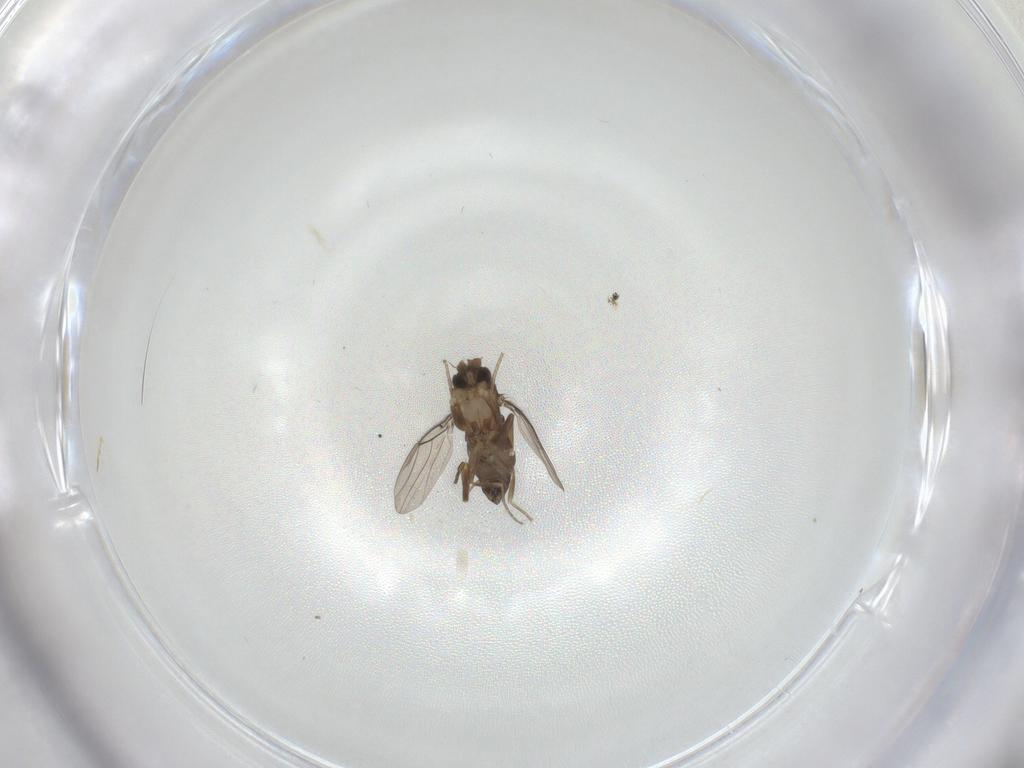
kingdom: Animalia
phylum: Arthropoda
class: Insecta
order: Diptera
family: Phoridae
